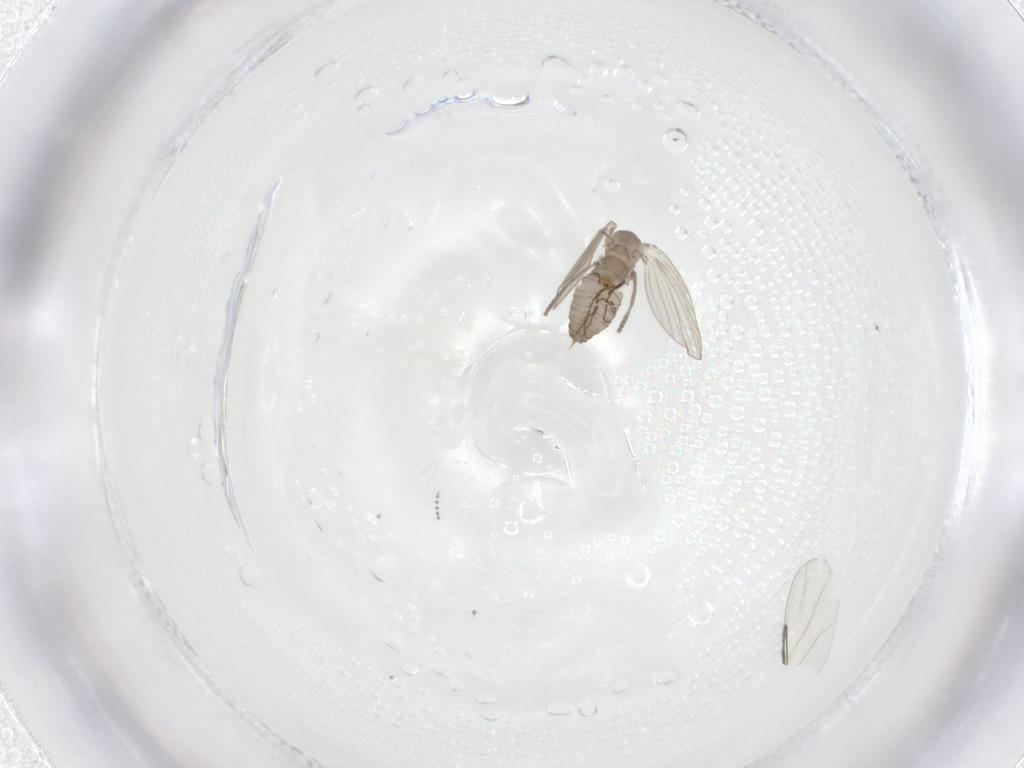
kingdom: Animalia
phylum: Arthropoda
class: Insecta
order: Diptera
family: Psychodidae
